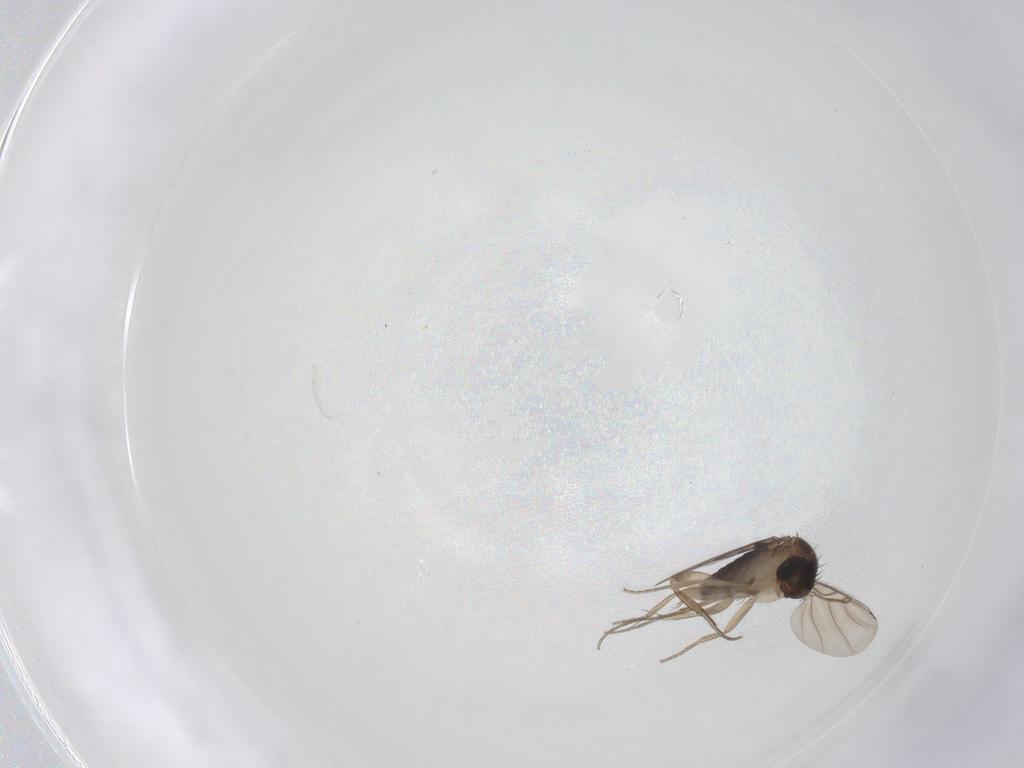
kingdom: Animalia
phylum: Arthropoda
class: Insecta
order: Diptera
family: Phoridae
